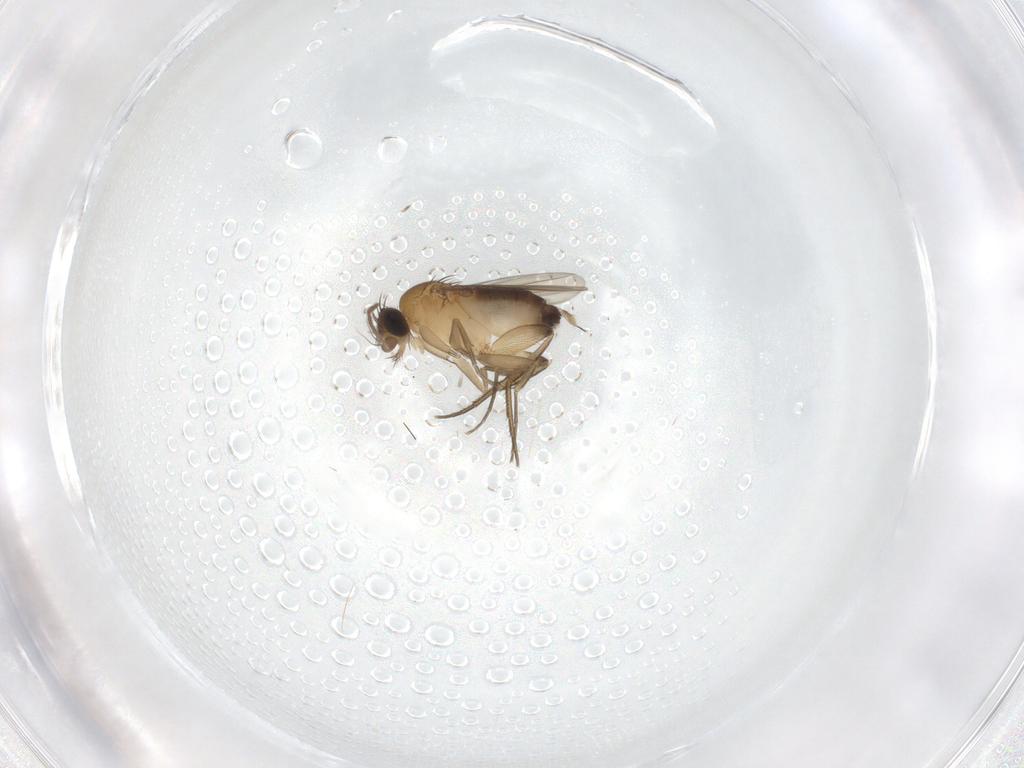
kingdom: Animalia
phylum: Arthropoda
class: Insecta
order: Diptera
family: Phoridae
